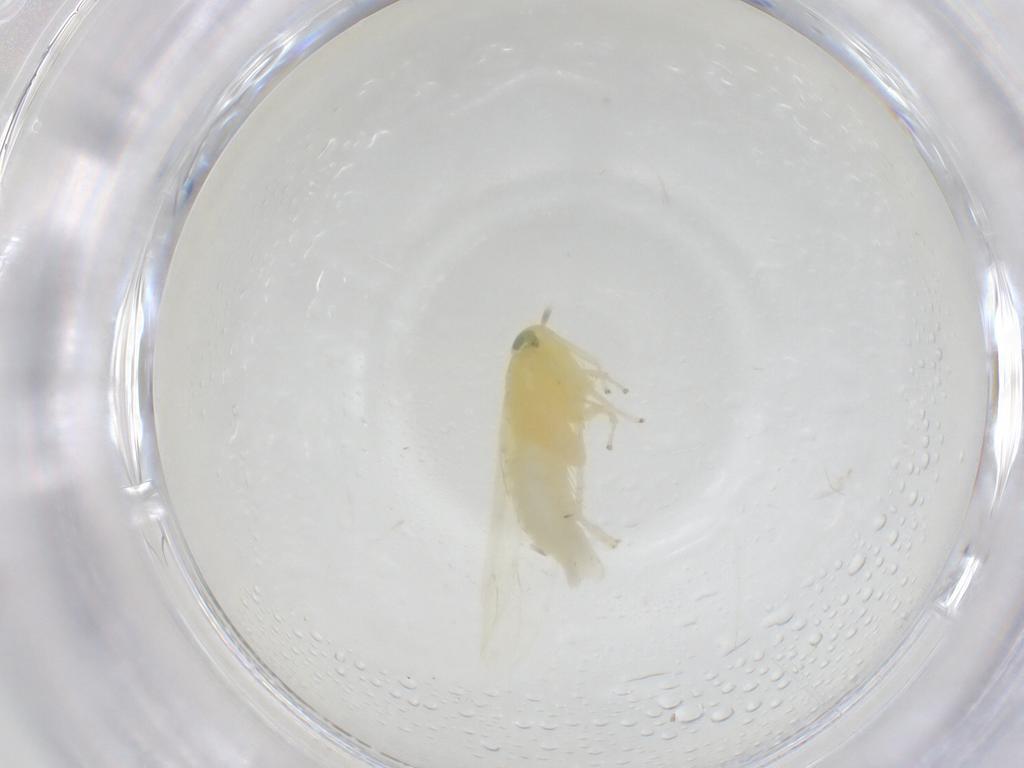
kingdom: Animalia
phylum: Arthropoda
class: Insecta
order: Hemiptera
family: Cicadellidae
